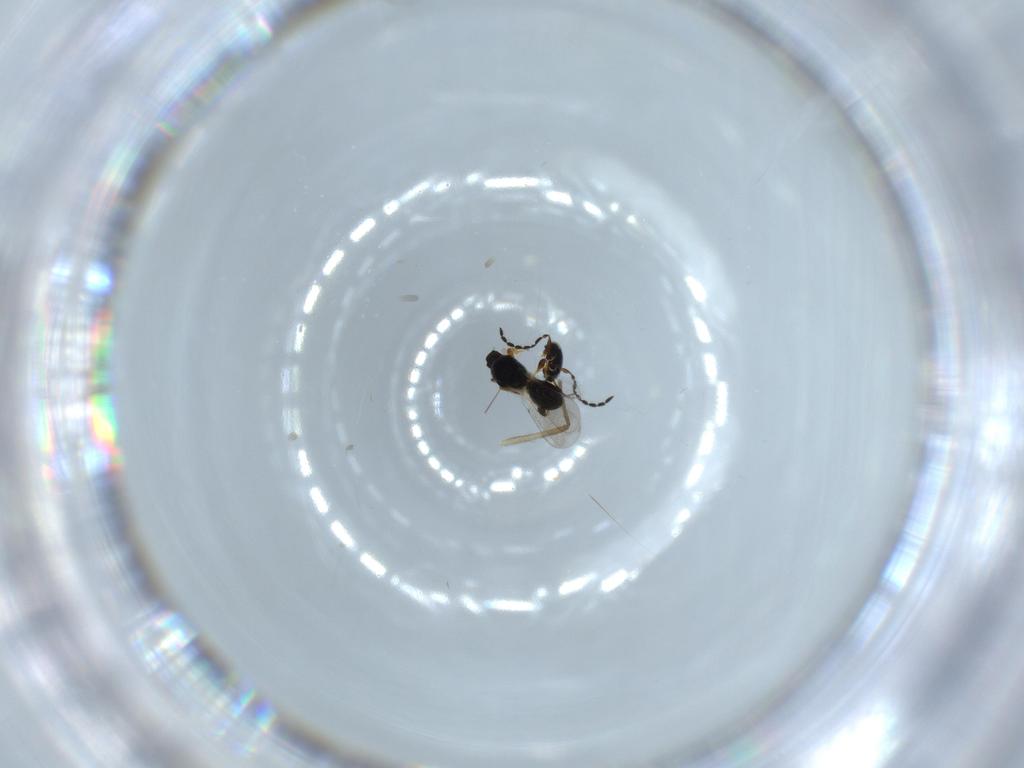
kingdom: Animalia
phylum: Arthropoda
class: Insecta
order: Hymenoptera
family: Scelionidae
